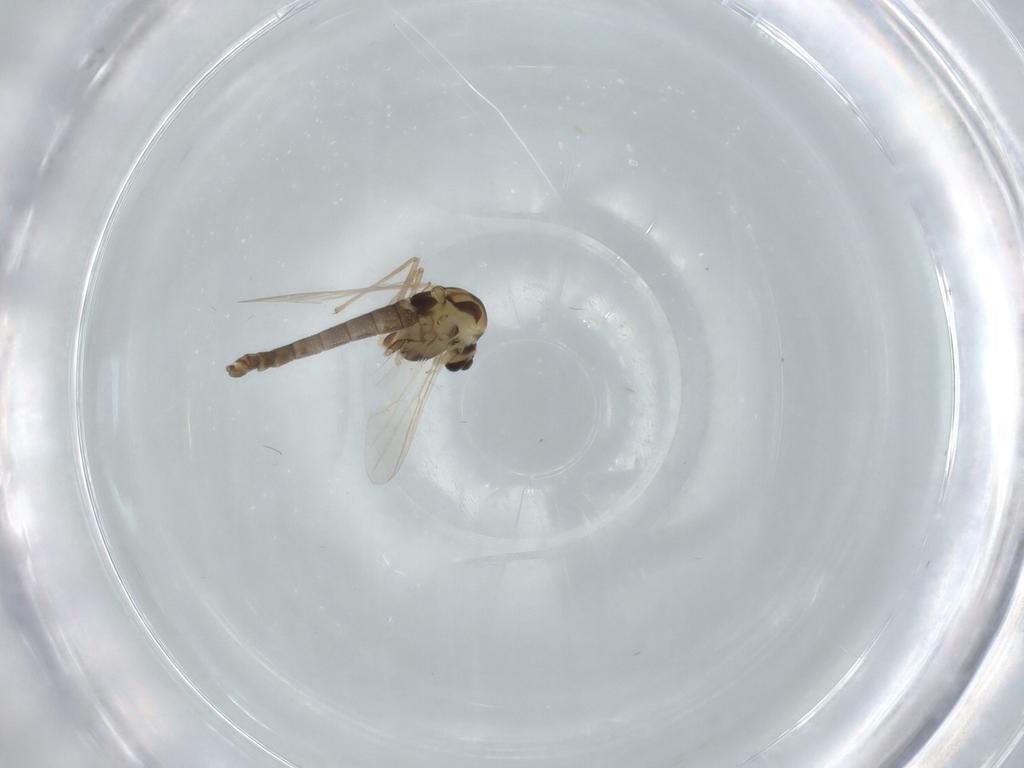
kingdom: Animalia
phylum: Arthropoda
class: Insecta
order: Diptera
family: Chironomidae
